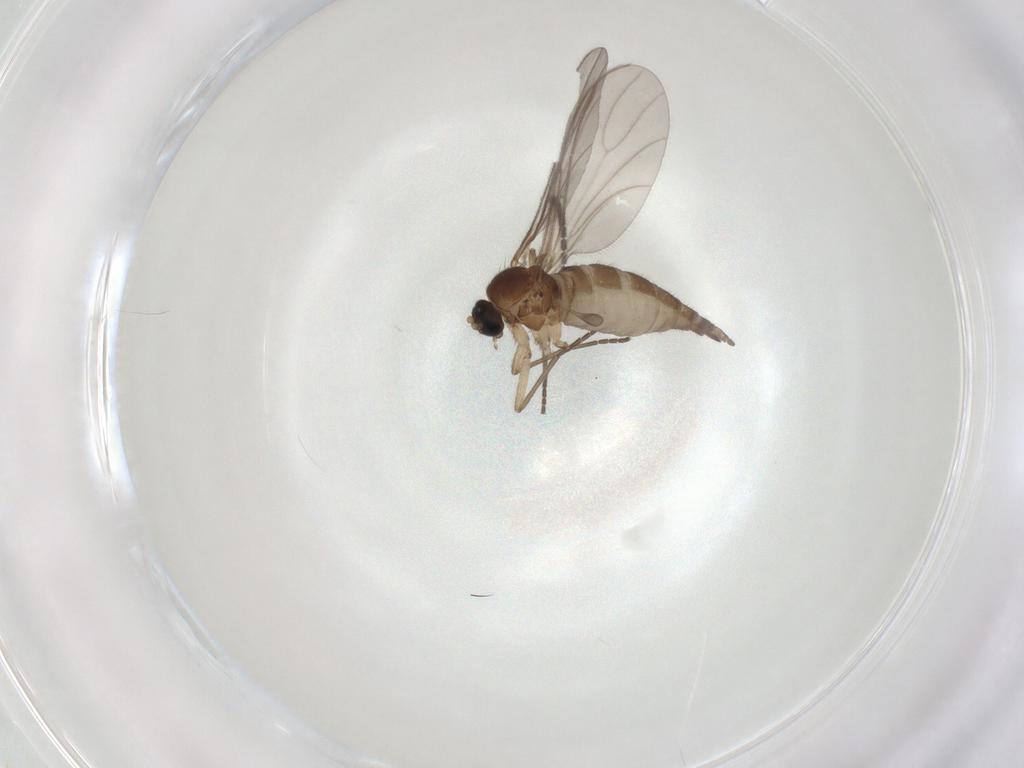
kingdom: Animalia
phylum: Arthropoda
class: Insecta
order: Diptera
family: Sciaridae
